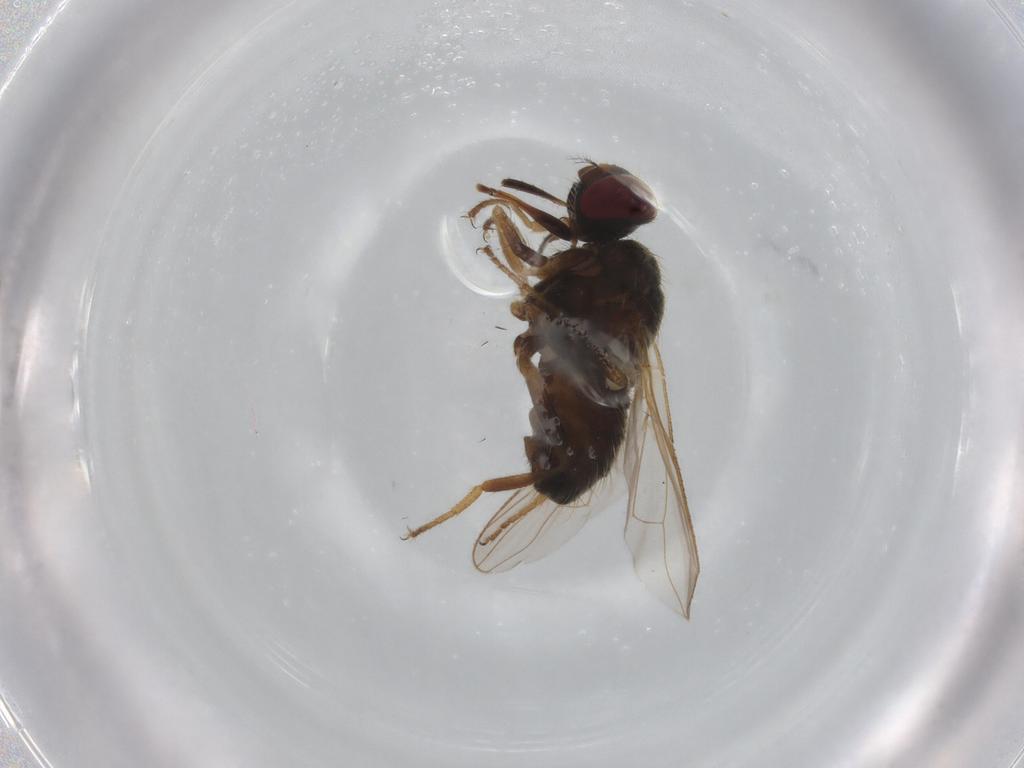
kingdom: Animalia
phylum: Arthropoda
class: Insecta
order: Diptera
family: Muscidae
